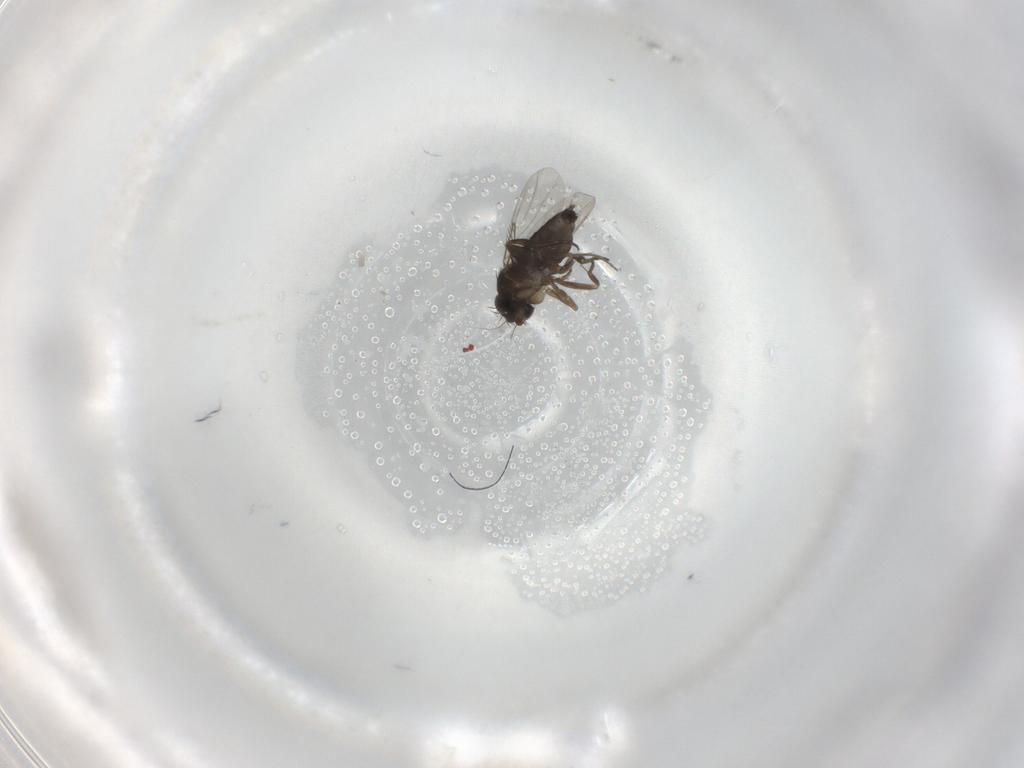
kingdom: Animalia
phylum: Arthropoda
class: Insecta
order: Diptera
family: Phoridae
